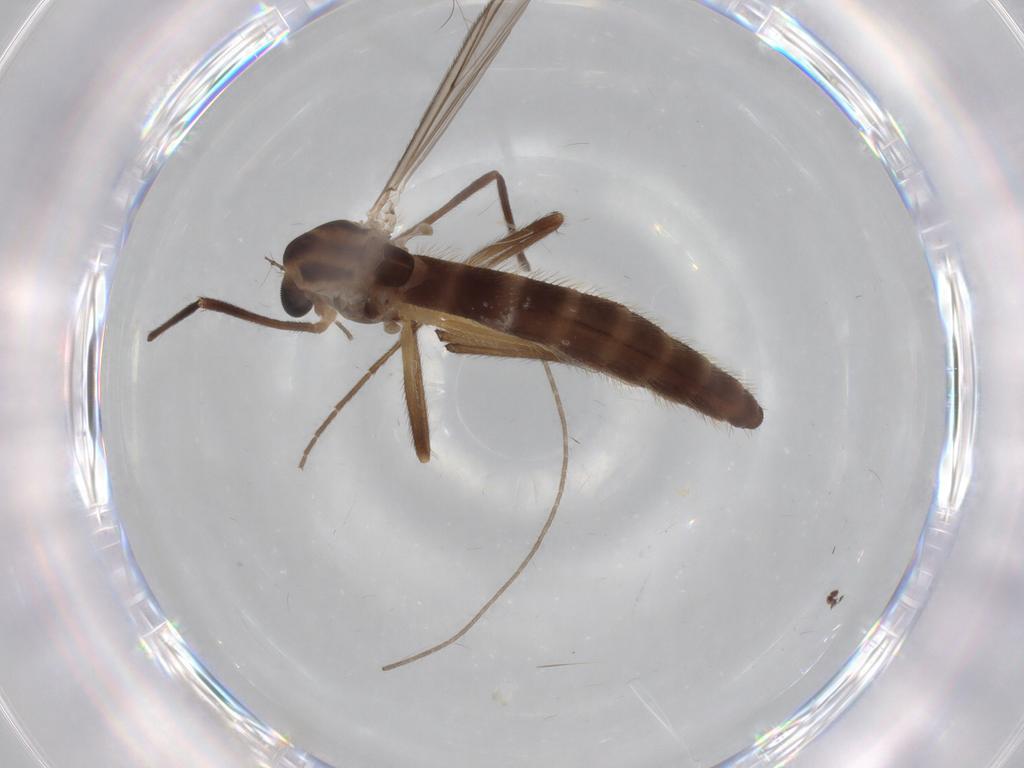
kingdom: Animalia
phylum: Arthropoda
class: Insecta
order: Diptera
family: Chironomidae
